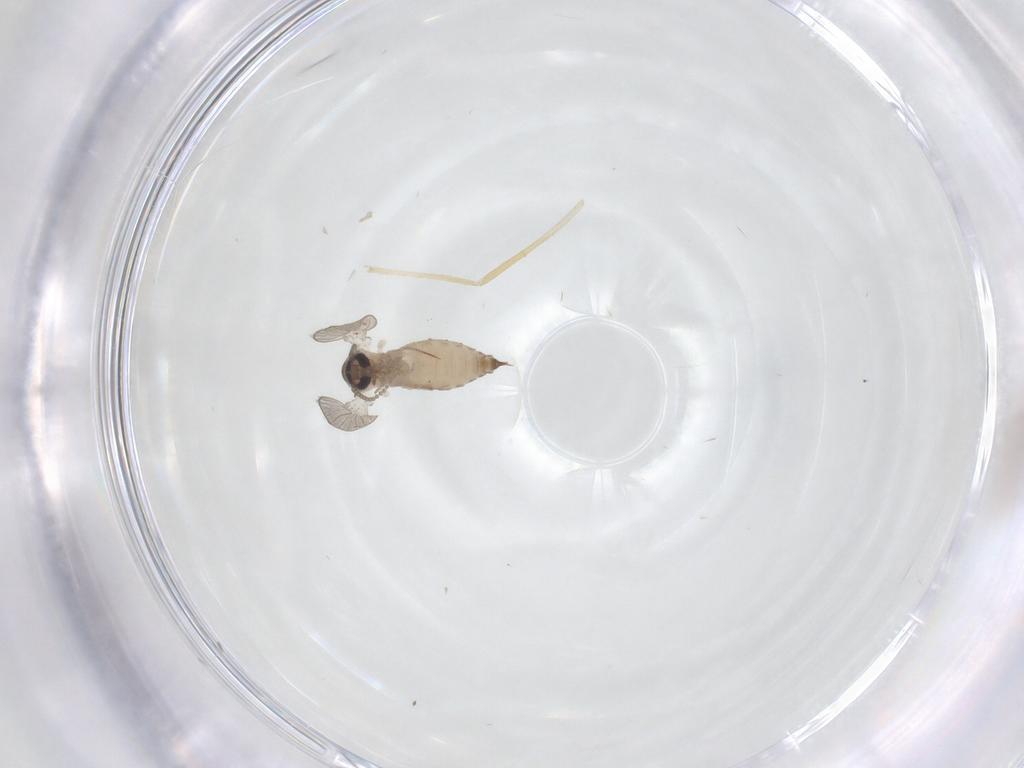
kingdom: Animalia
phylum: Arthropoda
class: Insecta
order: Diptera
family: Psychodidae
